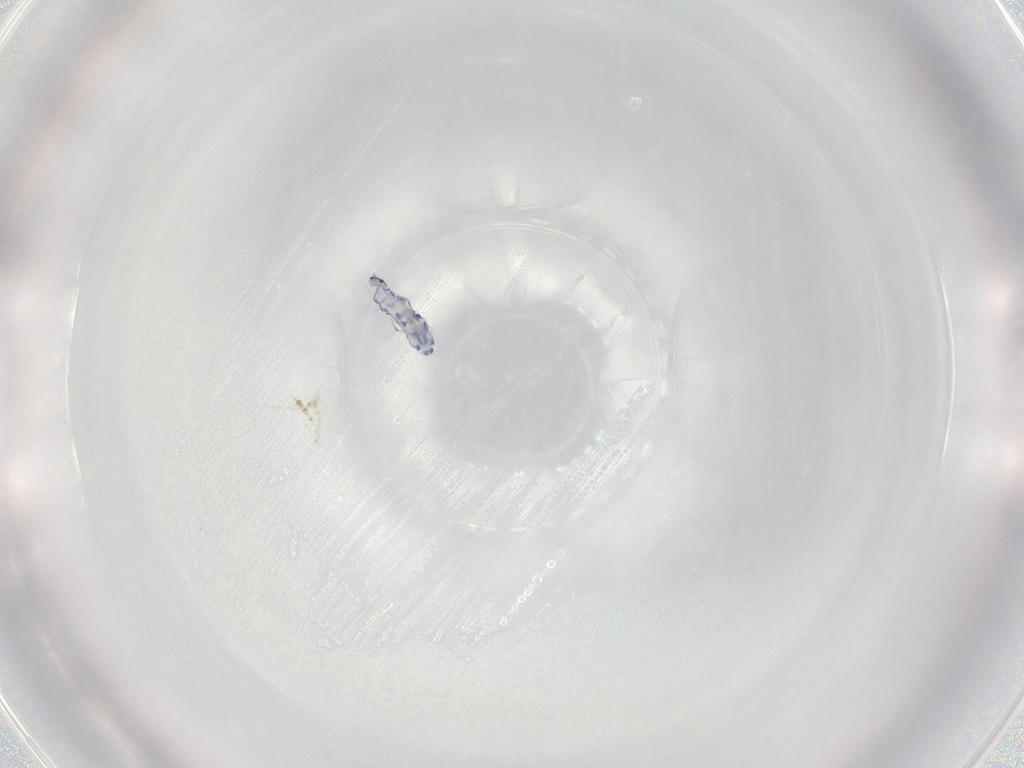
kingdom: Animalia
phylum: Arthropoda
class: Collembola
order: Entomobryomorpha
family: Entomobryidae
